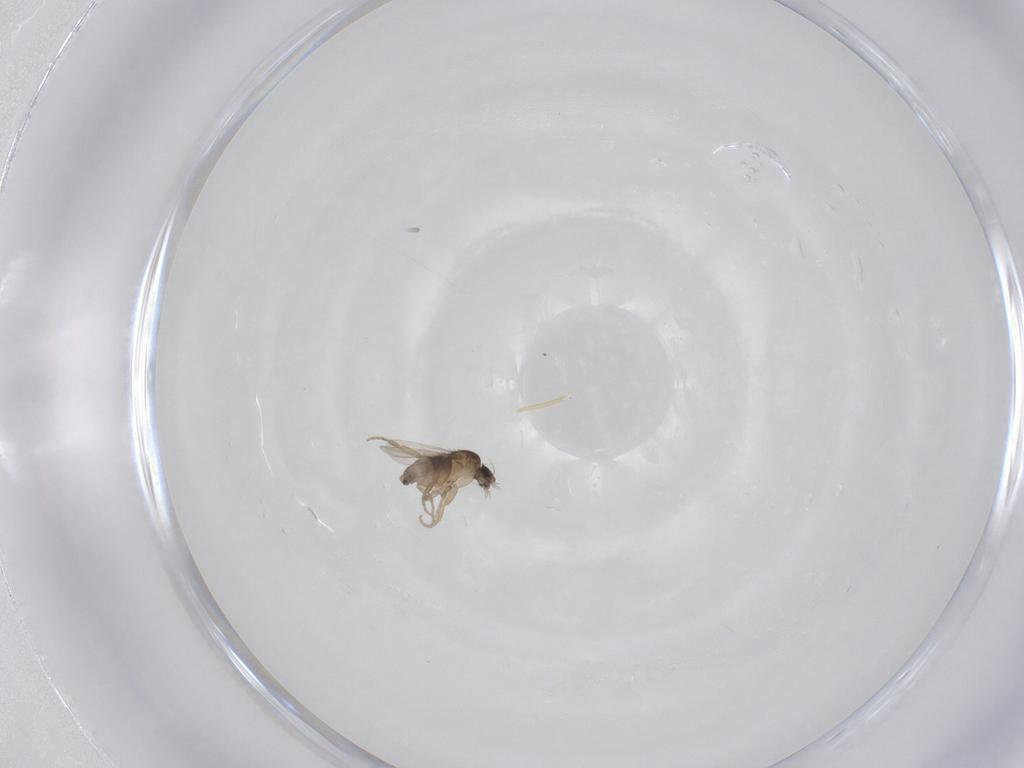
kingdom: Animalia
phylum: Arthropoda
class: Insecta
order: Diptera
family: Phoridae
